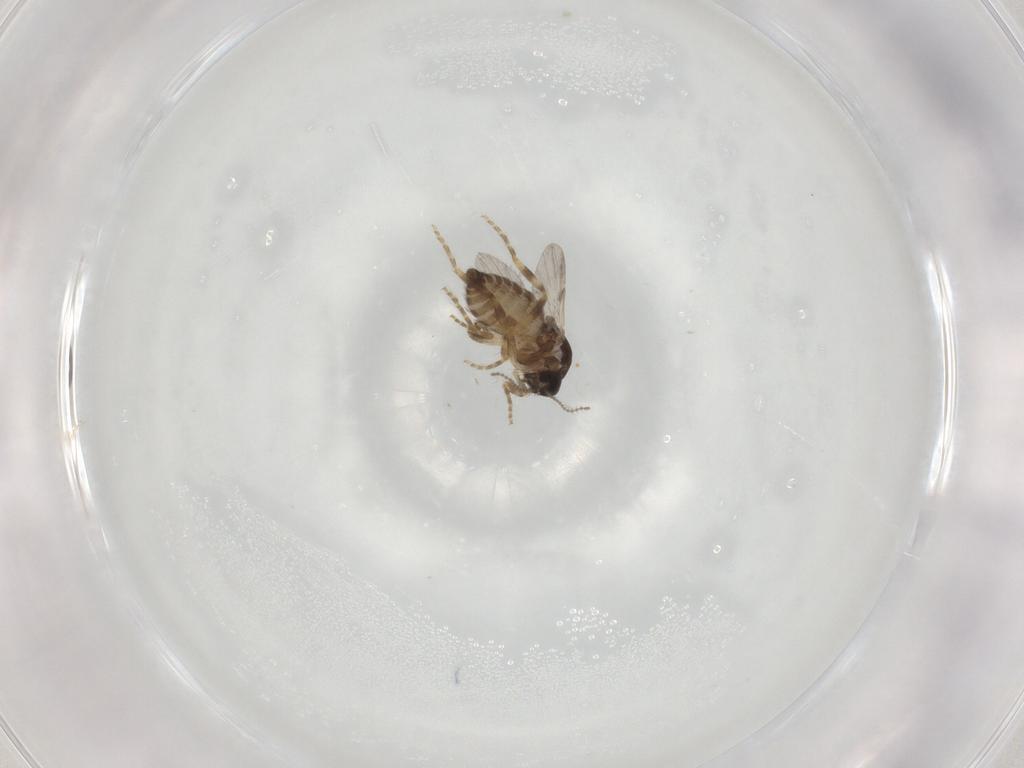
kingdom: Animalia
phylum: Arthropoda
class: Insecta
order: Diptera
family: Ceratopogonidae
